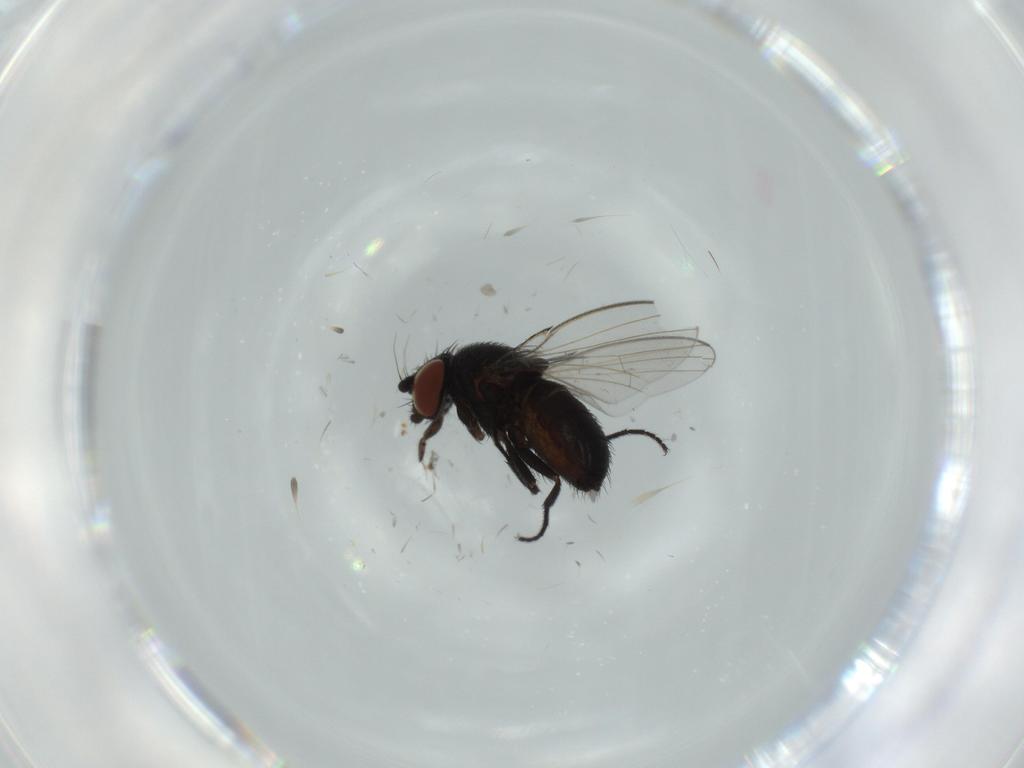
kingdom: Animalia
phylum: Arthropoda
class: Insecta
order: Diptera
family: Milichiidae
